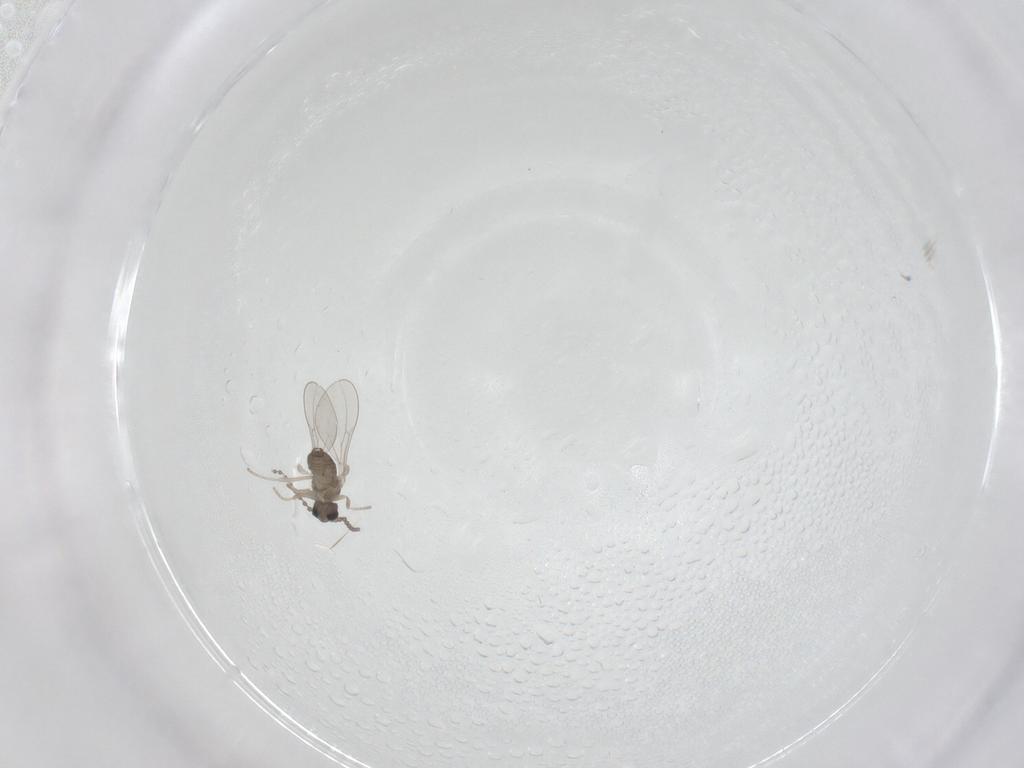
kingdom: Animalia
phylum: Arthropoda
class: Insecta
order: Diptera
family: Cecidomyiidae
